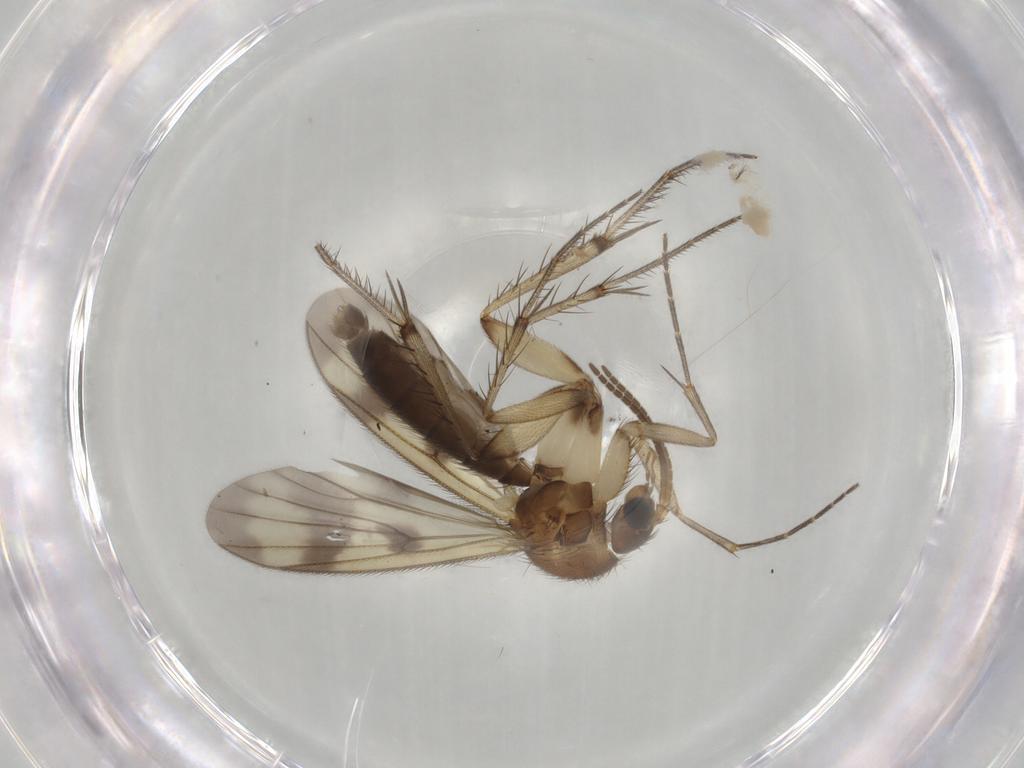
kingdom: Animalia
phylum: Arthropoda
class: Insecta
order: Diptera
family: Mycetophilidae
